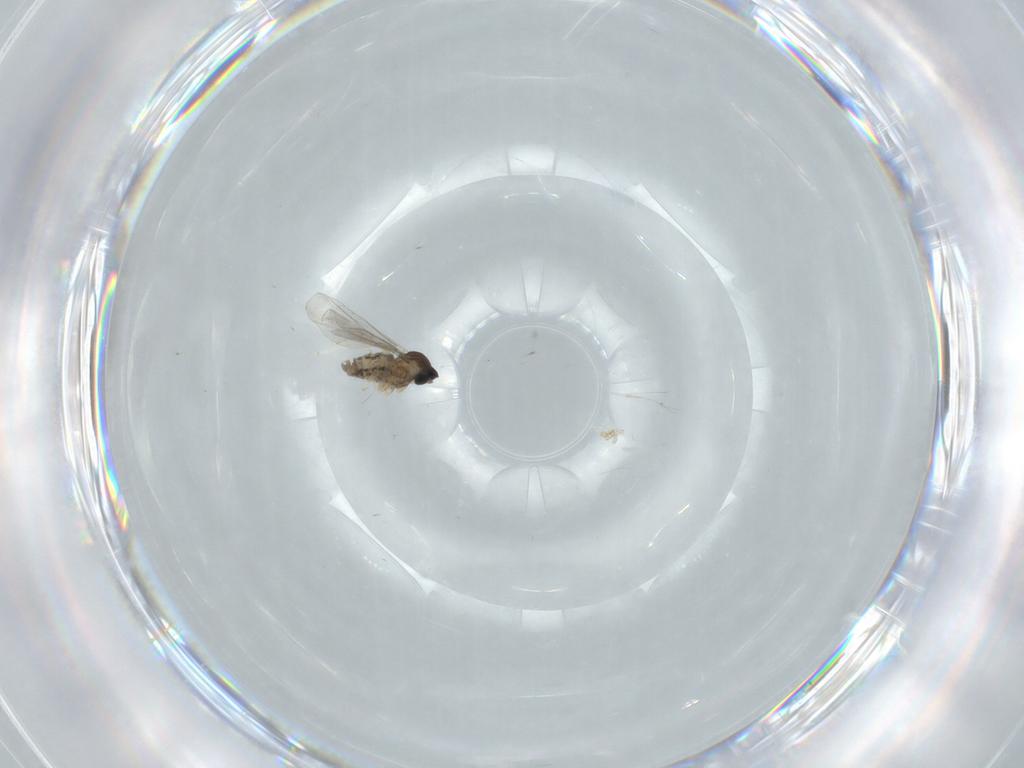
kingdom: Animalia
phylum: Arthropoda
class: Insecta
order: Diptera
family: Cecidomyiidae
